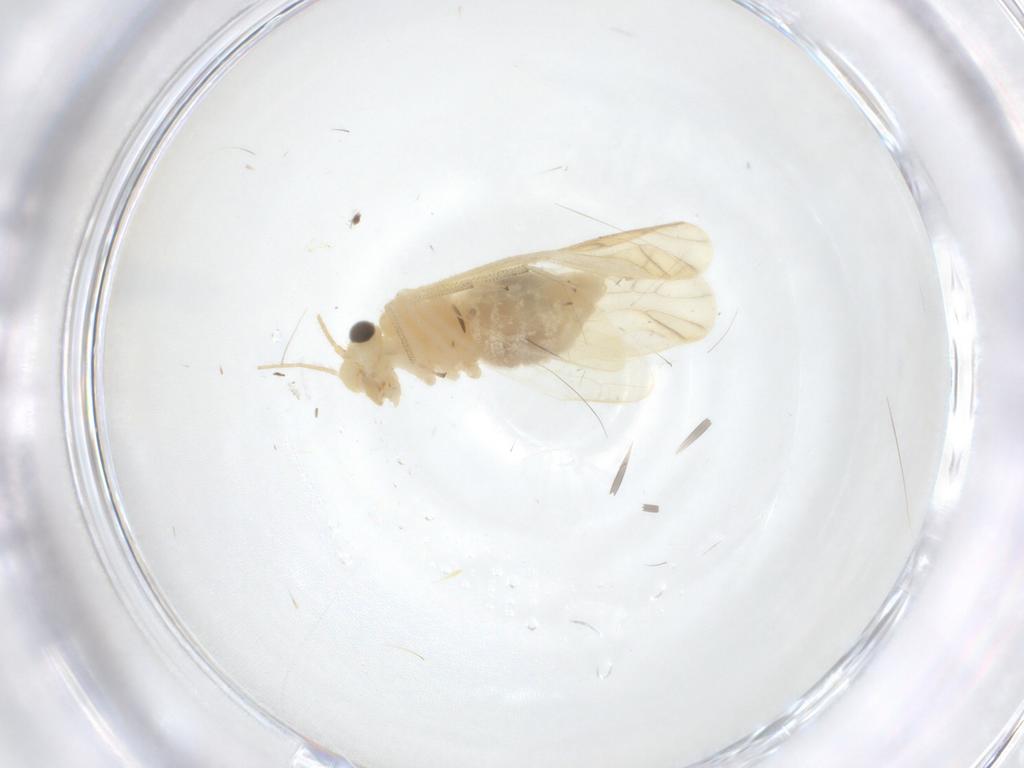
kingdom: Animalia
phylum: Arthropoda
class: Insecta
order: Psocodea
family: Caeciliusidae
